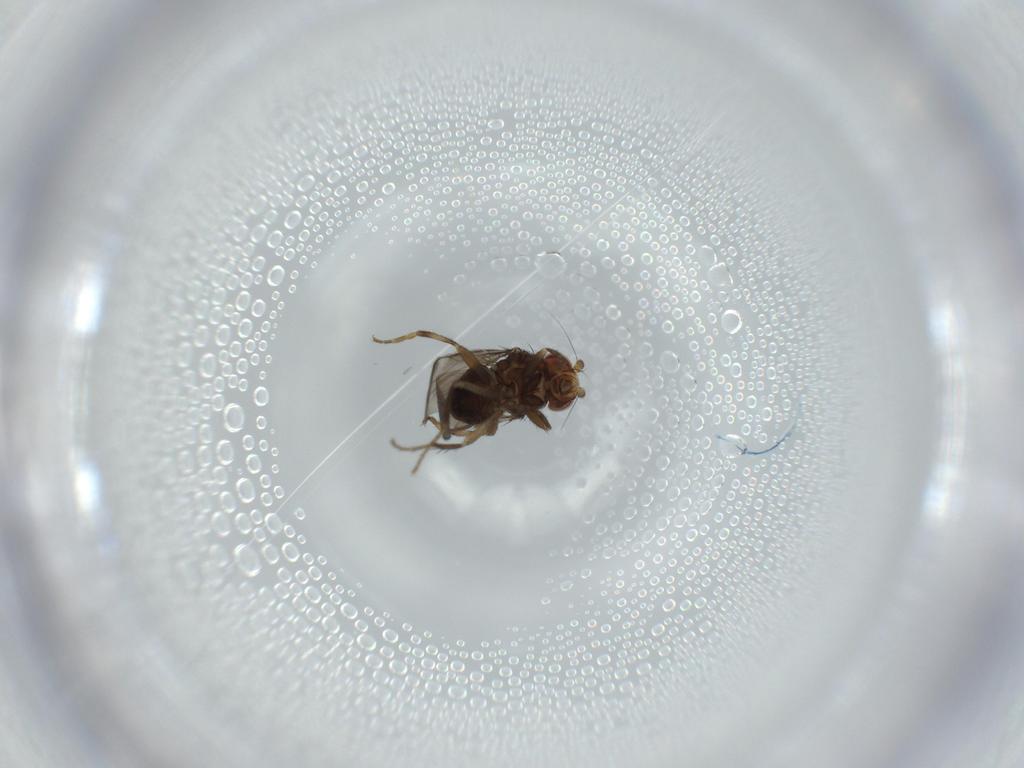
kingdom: Animalia
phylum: Arthropoda
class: Insecta
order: Diptera
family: Sphaeroceridae
